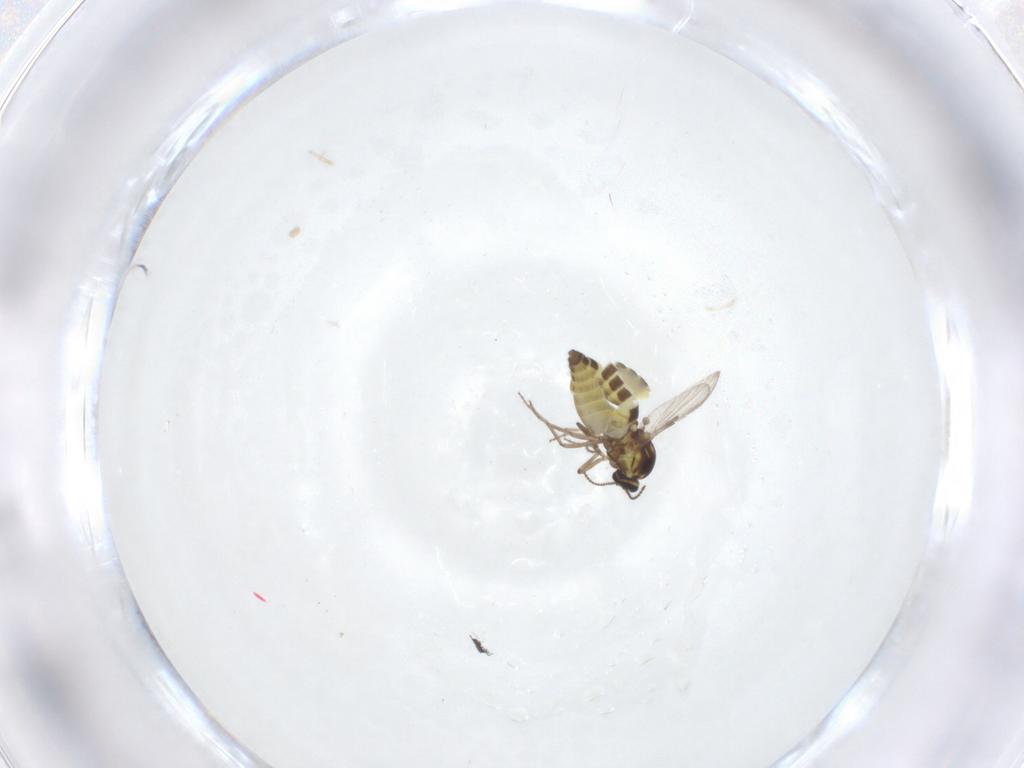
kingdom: Animalia
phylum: Arthropoda
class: Insecta
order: Diptera
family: Ceratopogonidae
